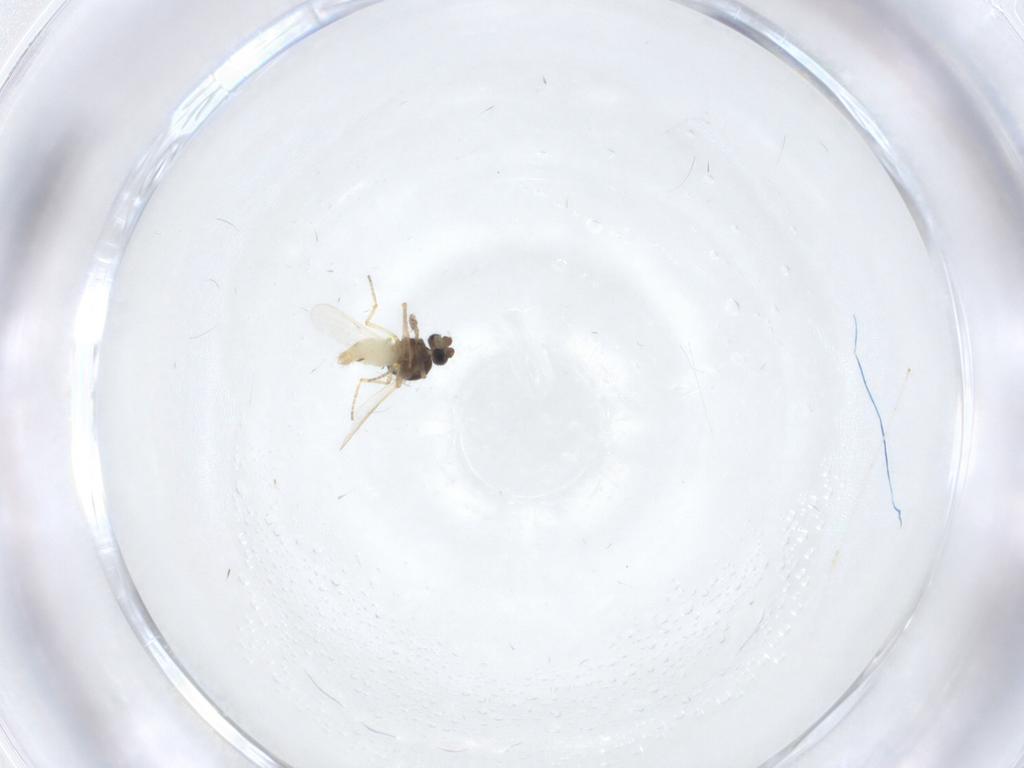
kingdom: Animalia
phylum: Arthropoda
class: Insecta
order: Diptera
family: Ceratopogonidae
